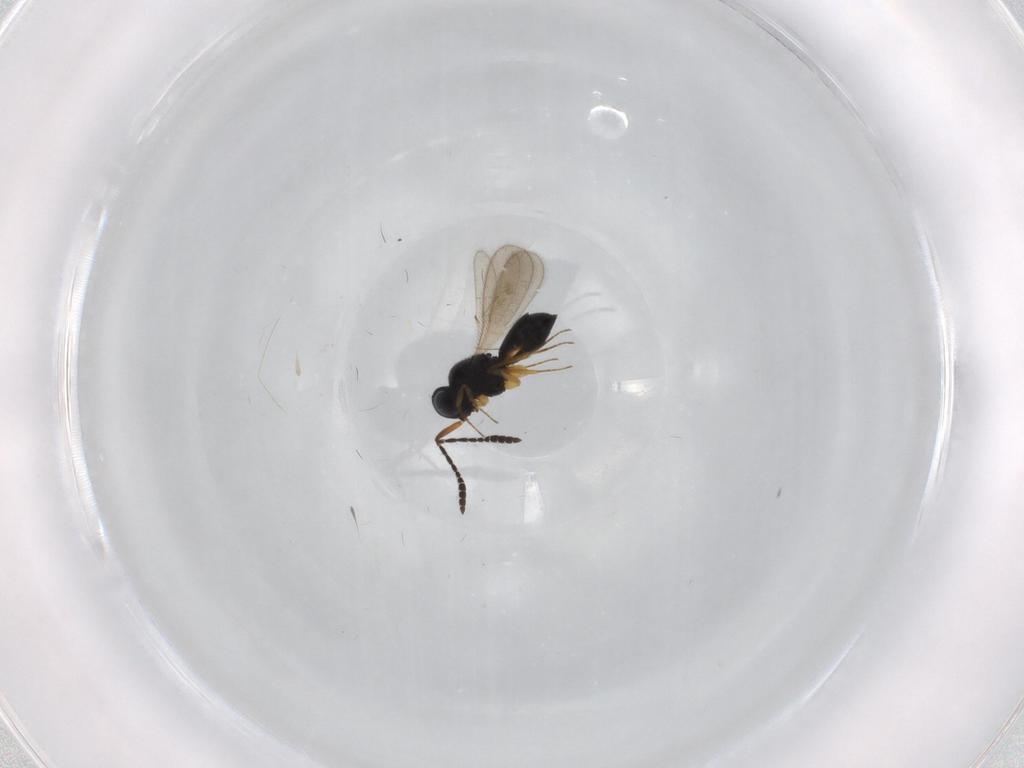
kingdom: Animalia
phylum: Arthropoda
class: Insecta
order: Hymenoptera
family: Scelionidae
